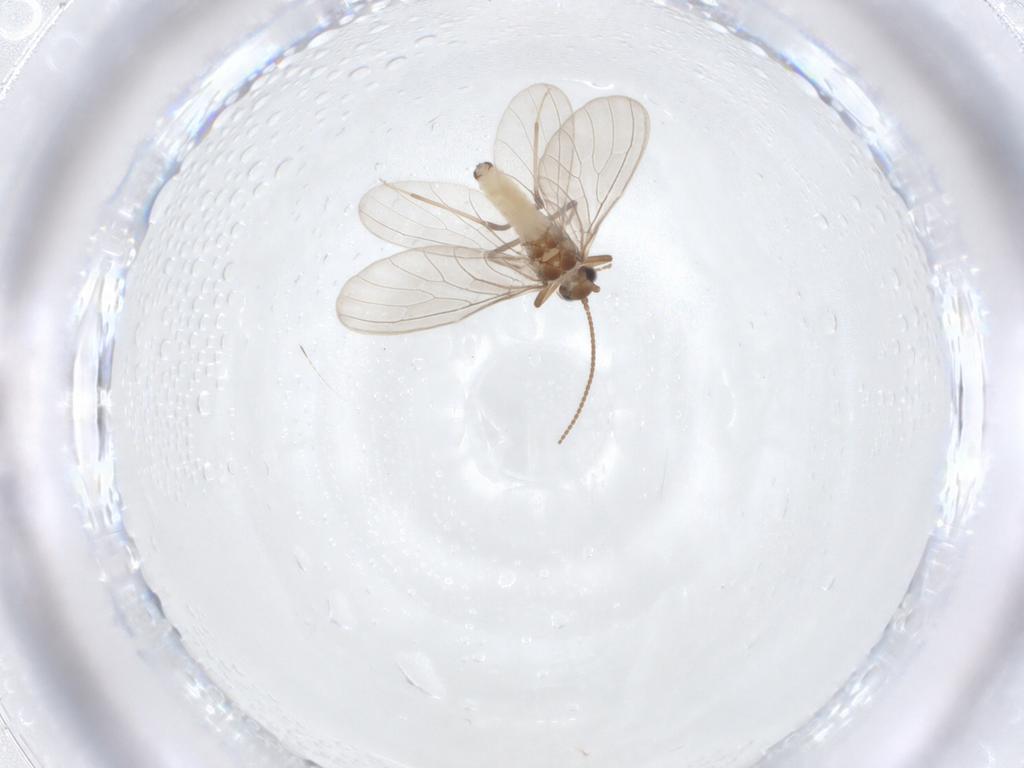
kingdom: Animalia
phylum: Arthropoda
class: Insecta
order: Neuroptera
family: Coniopterygidae
